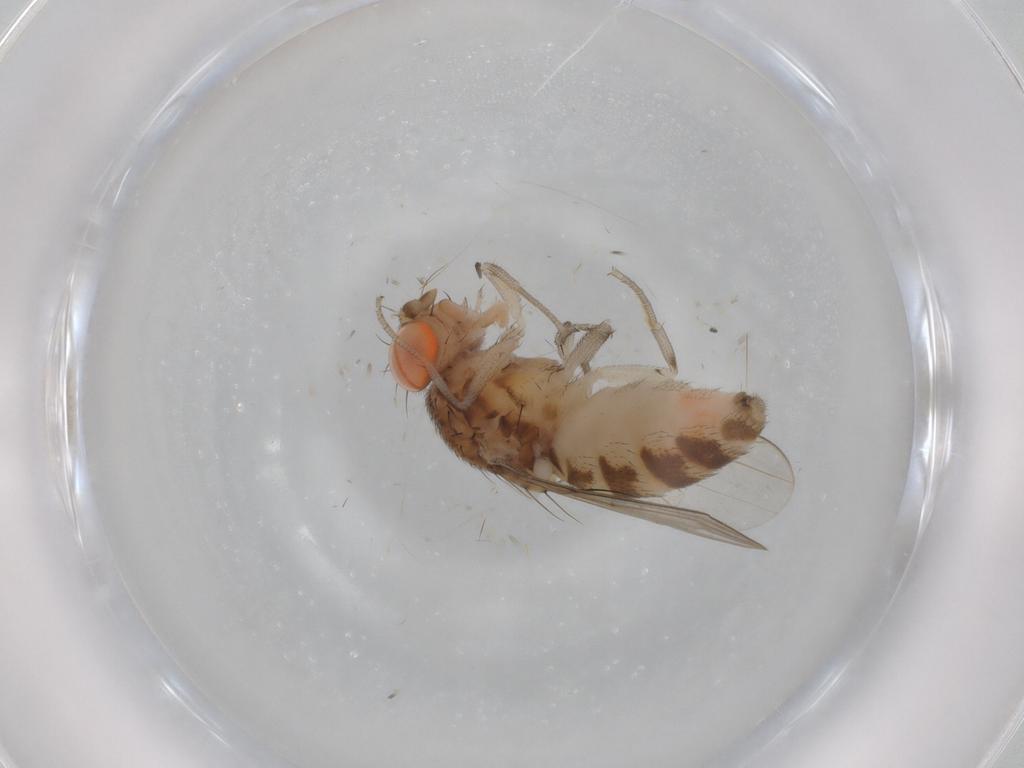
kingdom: Animalia
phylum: Arthropoda
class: Insecta
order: Diptera
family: Drosophilidae
